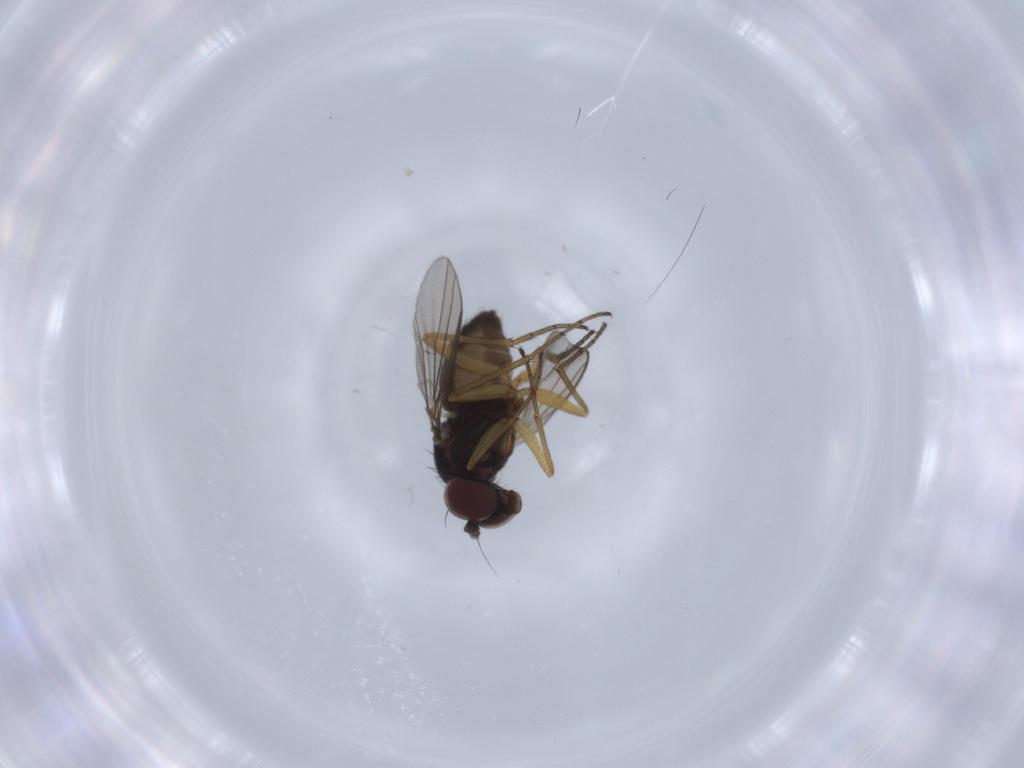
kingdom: Animalia
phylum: Arthropoda
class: Insecta
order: Diptera
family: Dolichopodidae
